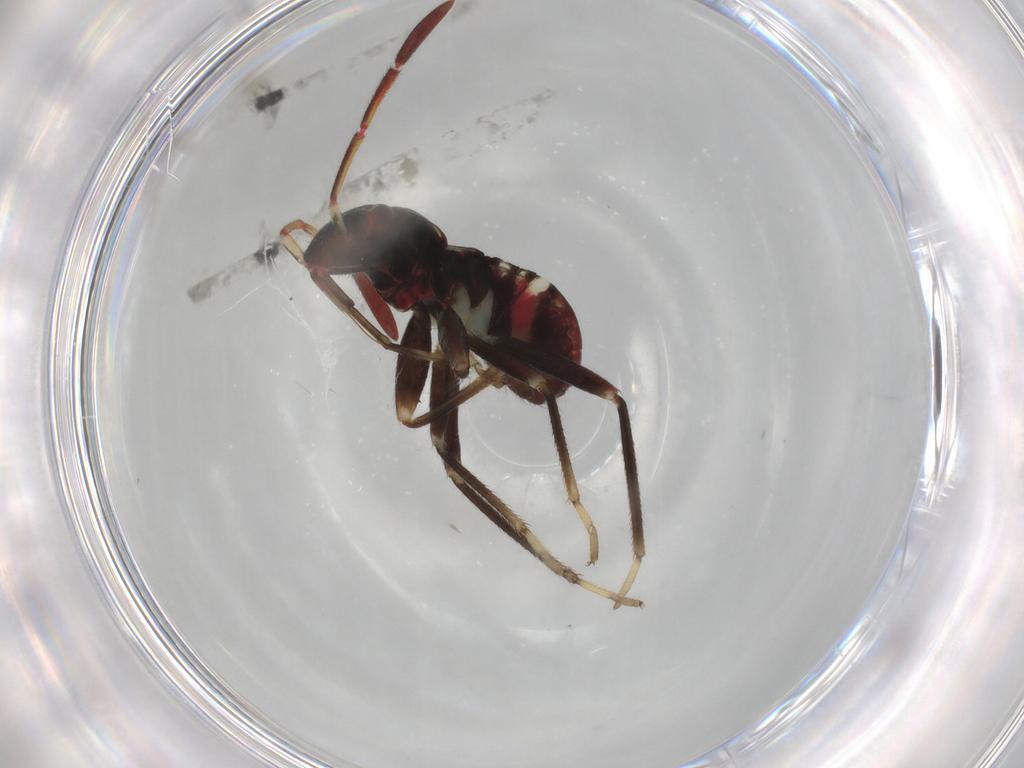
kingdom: Animalia
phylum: Arthropoda
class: Insecta
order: Hemiptera
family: Rhyparochromidae
